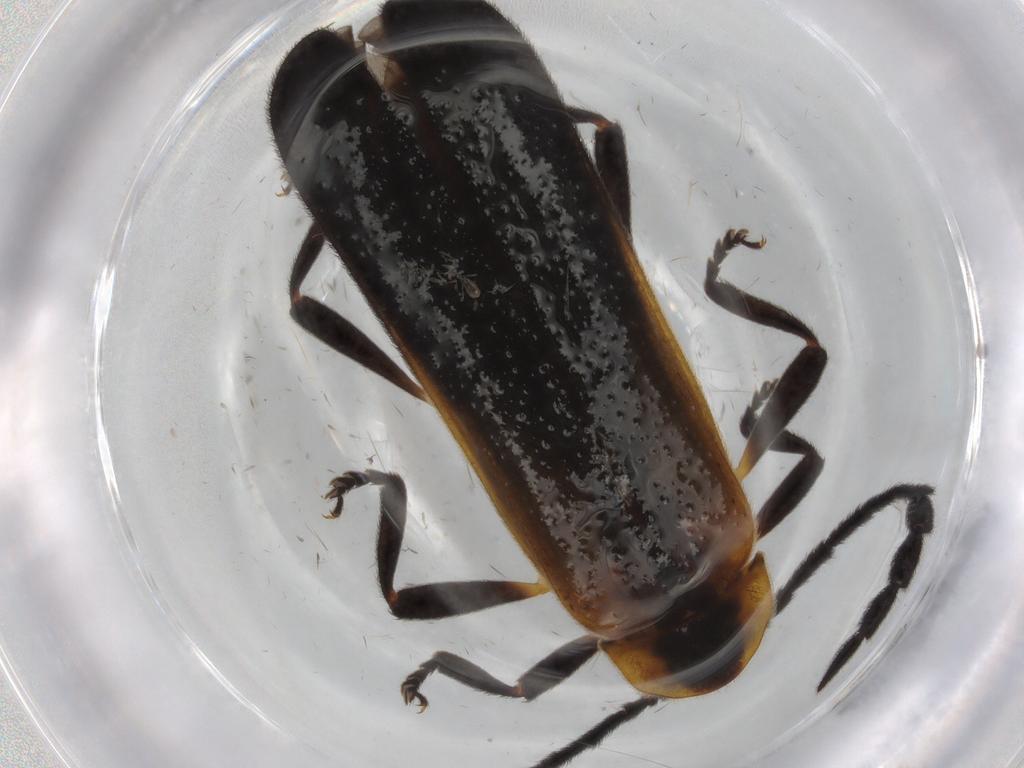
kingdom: Animalia
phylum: Arthropoda
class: Insecta
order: Coleoptera
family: Lycidae
